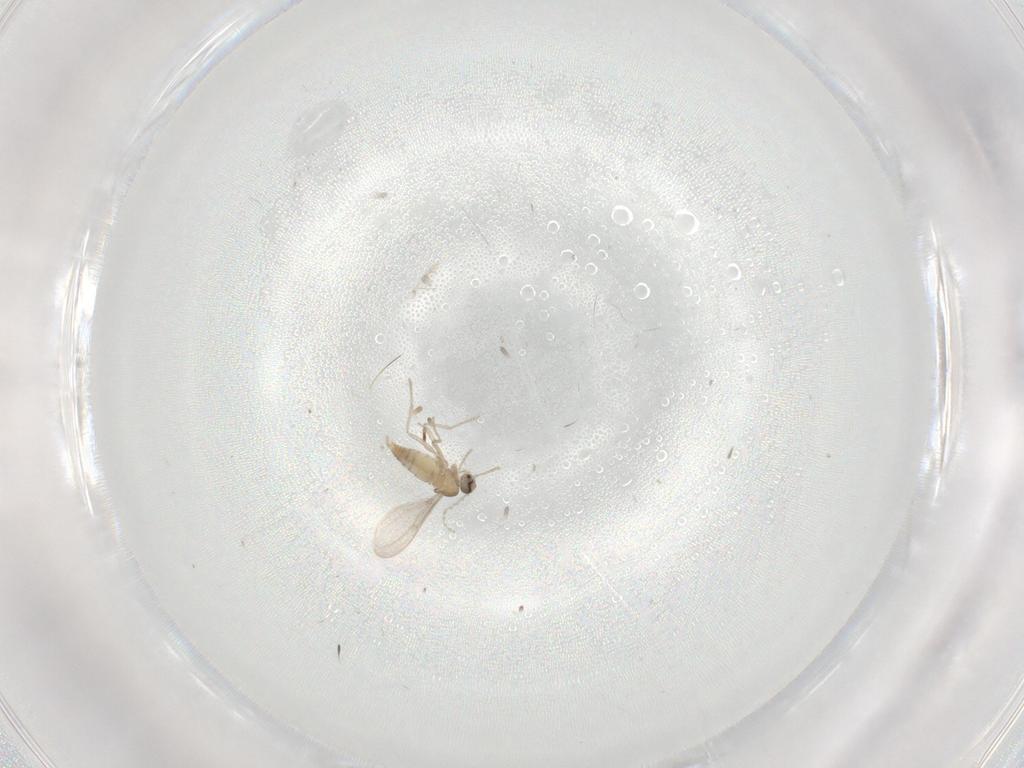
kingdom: Animalia
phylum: Arthropoda
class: Insecta
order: Diptera
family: Cecidomyiidae
